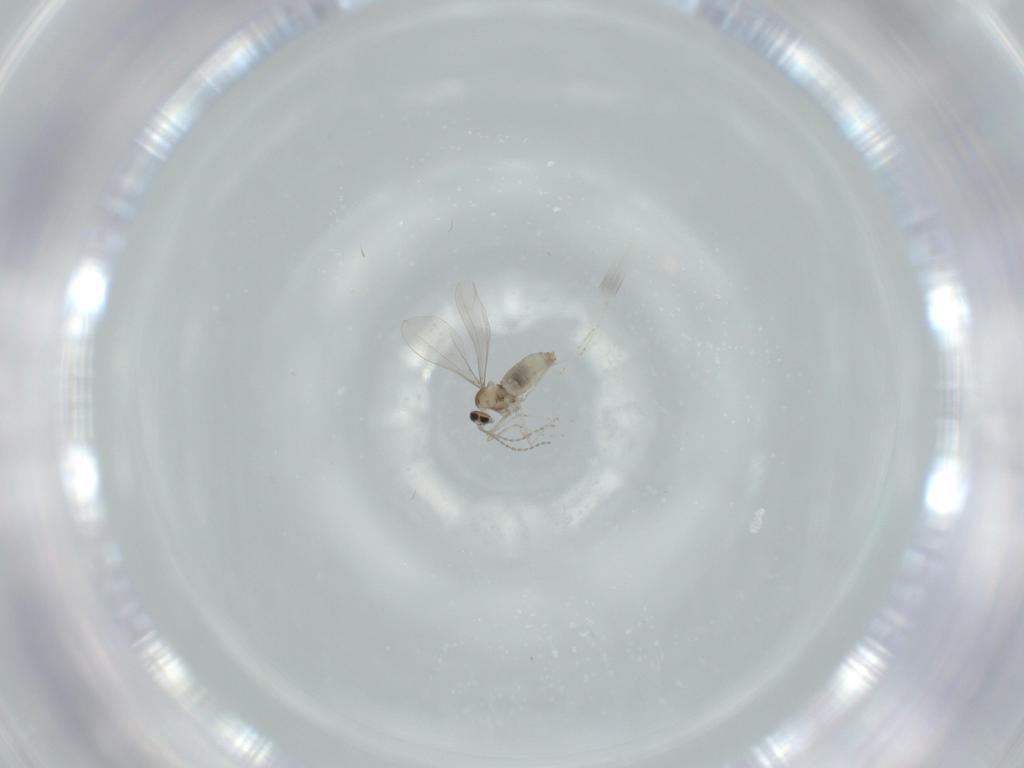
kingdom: Animalia
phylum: Arthropoda
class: Insecta
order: Diptera
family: Cecidomyiidae
